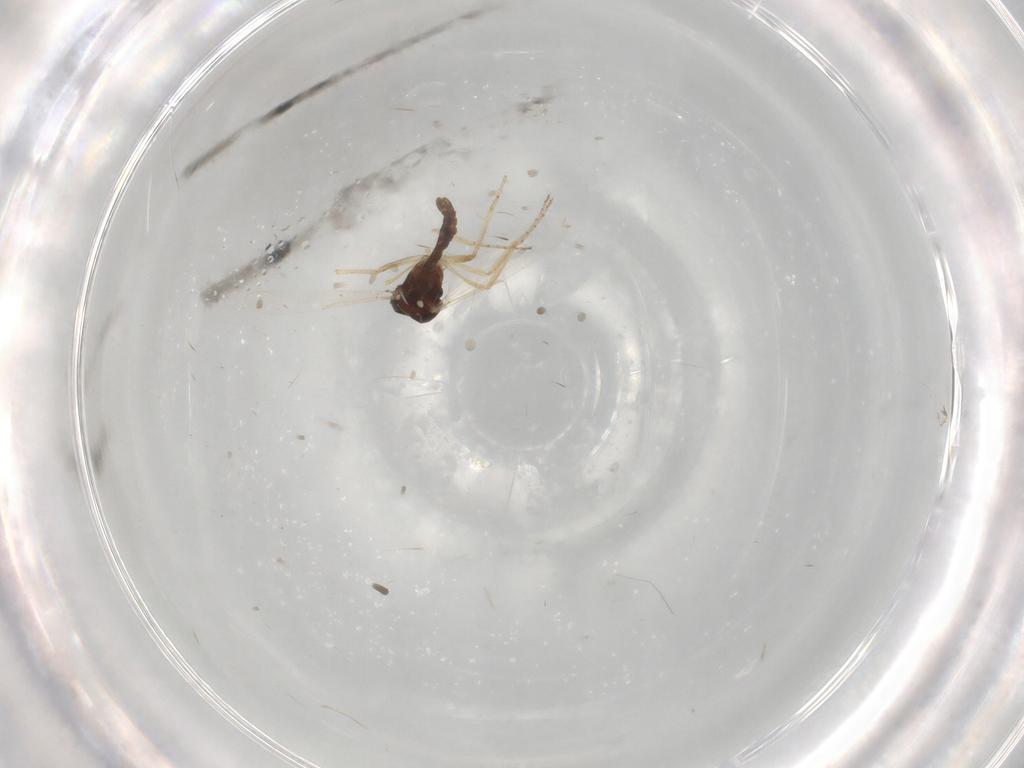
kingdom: Animalia
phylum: Arthropoda
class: Insecta
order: Diptera
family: Ceratopogonidae
